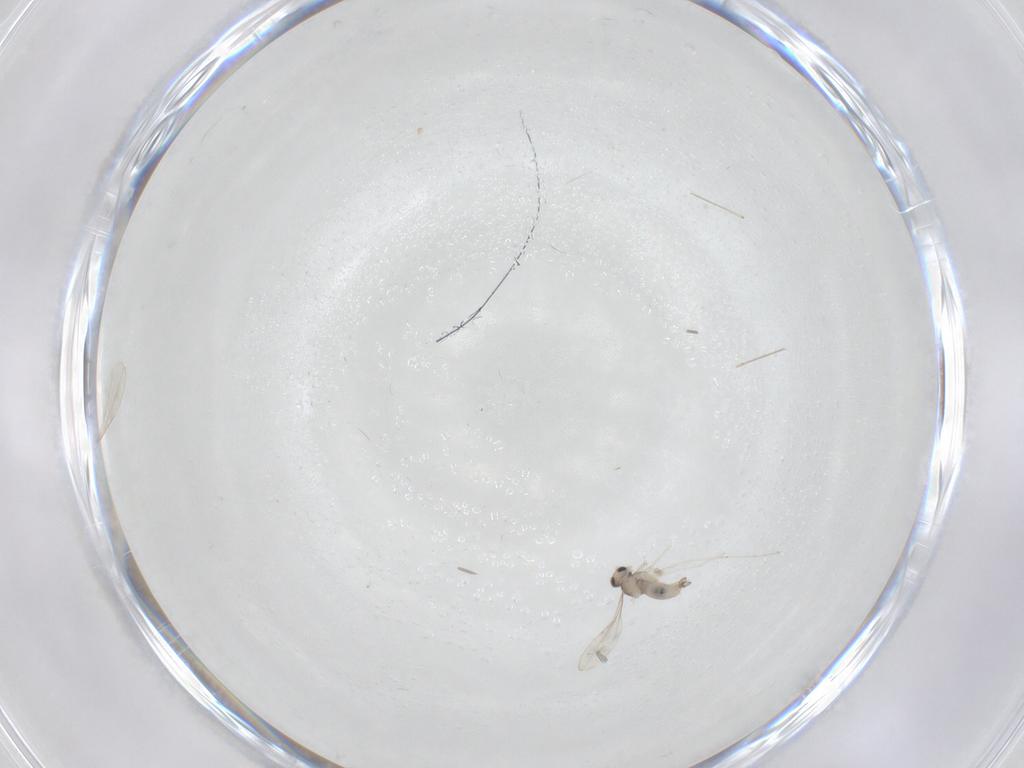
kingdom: Animalia
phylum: Arthropoda
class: Insecta
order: Diptera
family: Cecidomyiidae
